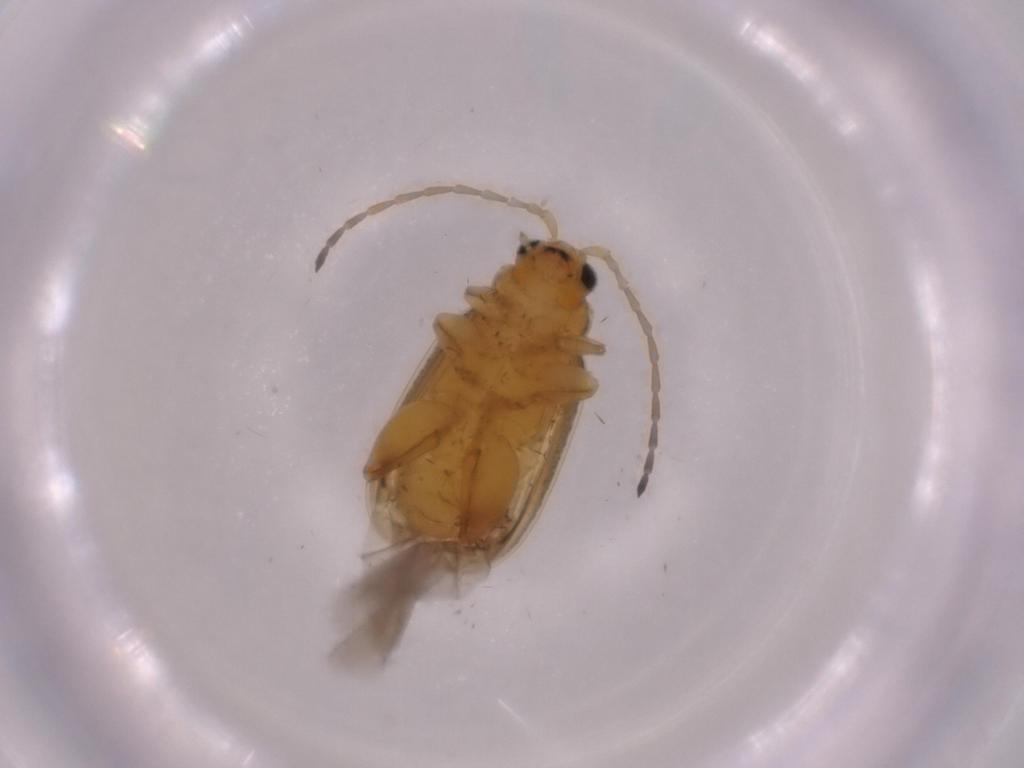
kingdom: Animalia
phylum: Arthropoda
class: Insecta
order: Coleoptera
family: Chrysomelidae
